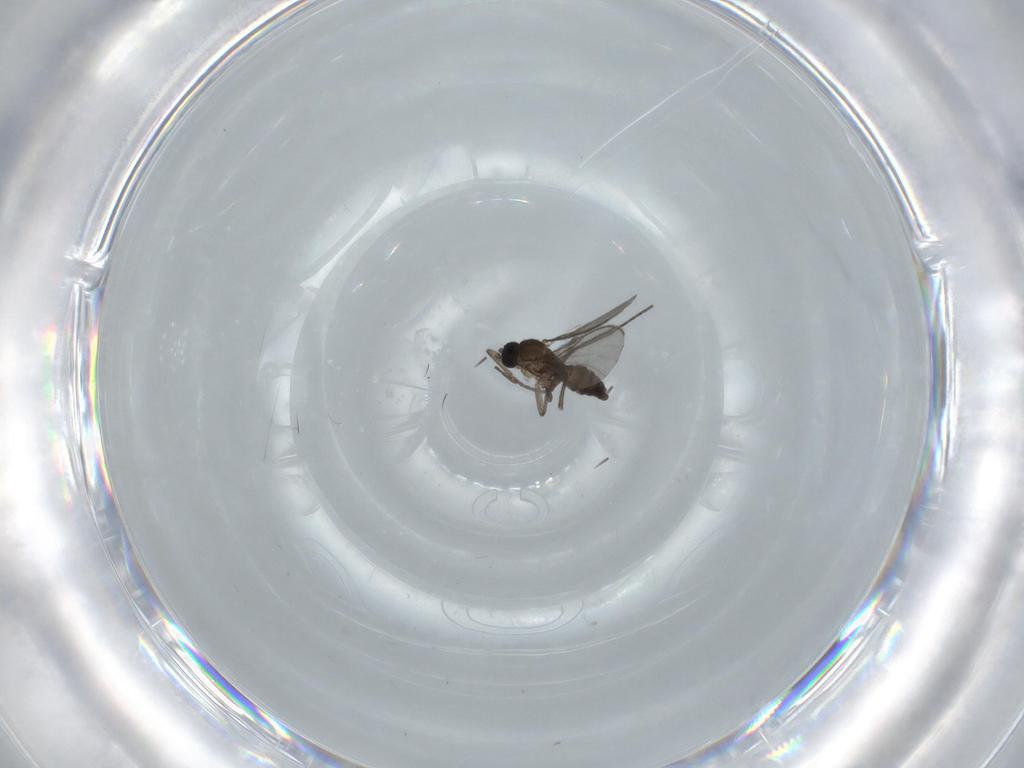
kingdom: Animalia
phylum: Arthropoda
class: Insecta
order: Diptera
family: Cecidomyiidae
